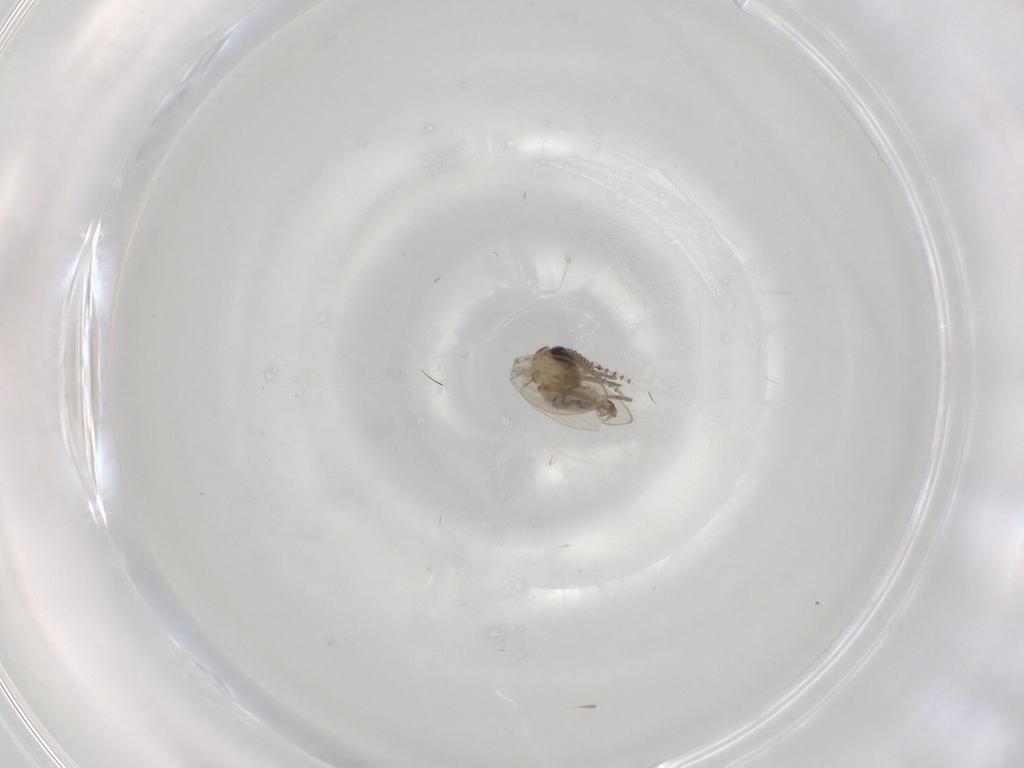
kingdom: Animalia
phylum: Arthropoda
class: Insecta
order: Diptera
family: Psychodidae
